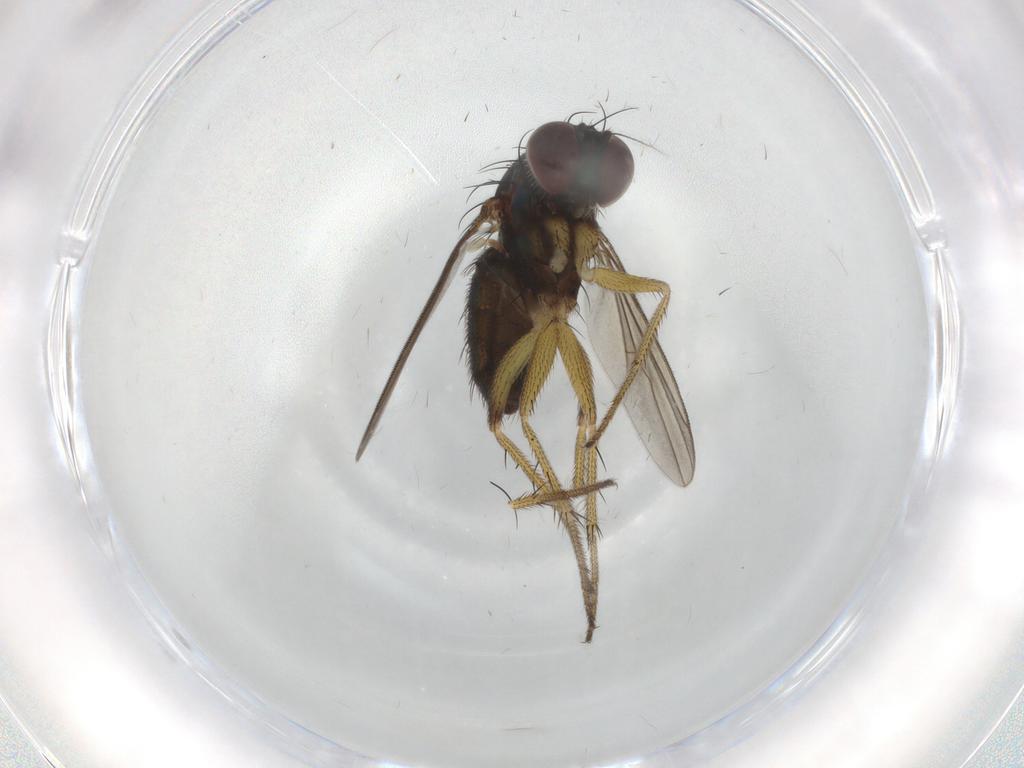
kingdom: Animalia
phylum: Arthropoda
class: Insecta
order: Diptera
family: Dolichopodidae
